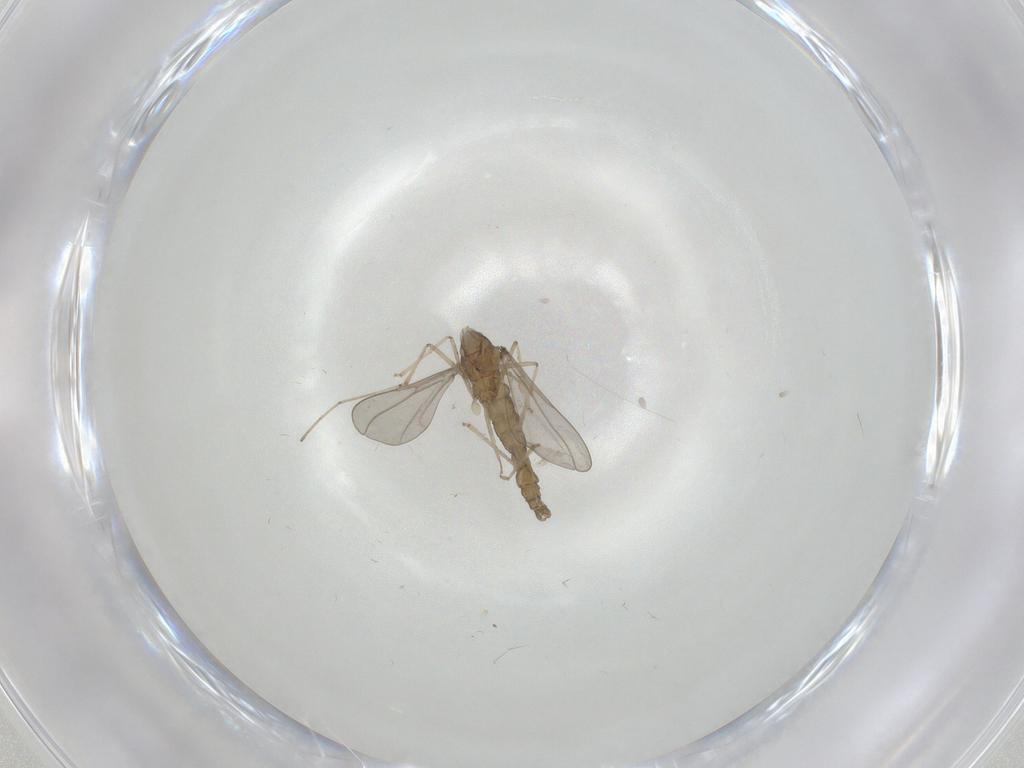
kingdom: Animalia
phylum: Arthropoda
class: Insecta
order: Diptera
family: Cecidomyiidae
